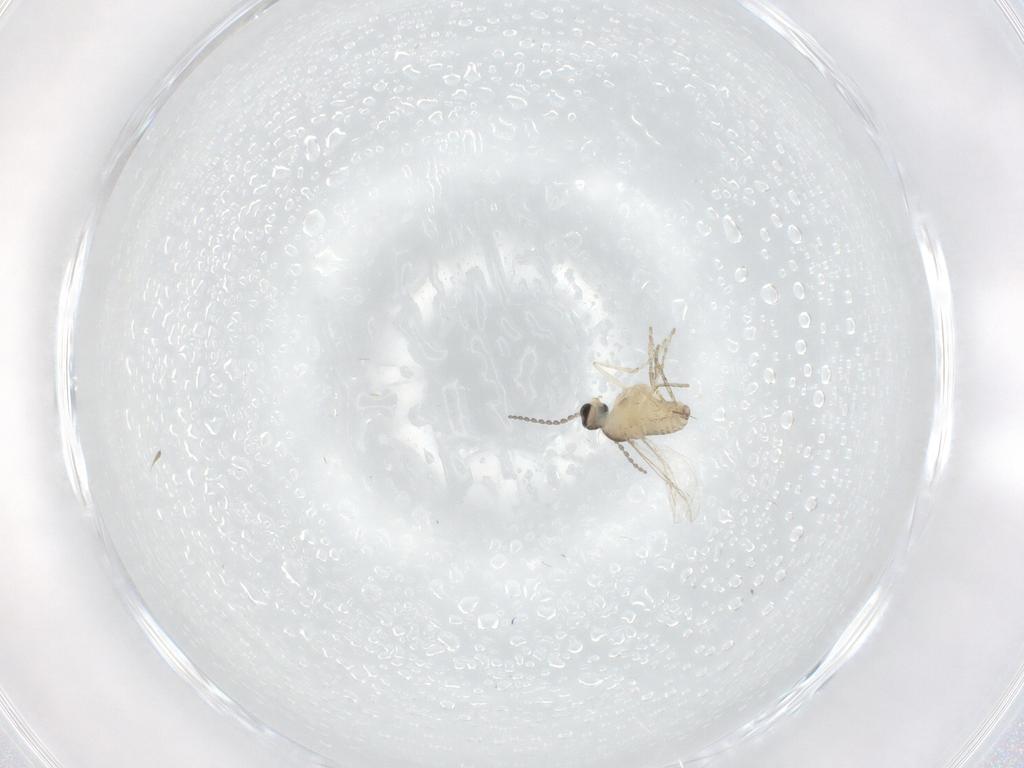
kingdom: Animalia
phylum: Arthropoda
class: Insecta
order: Diptera
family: Cecidomyiidae
